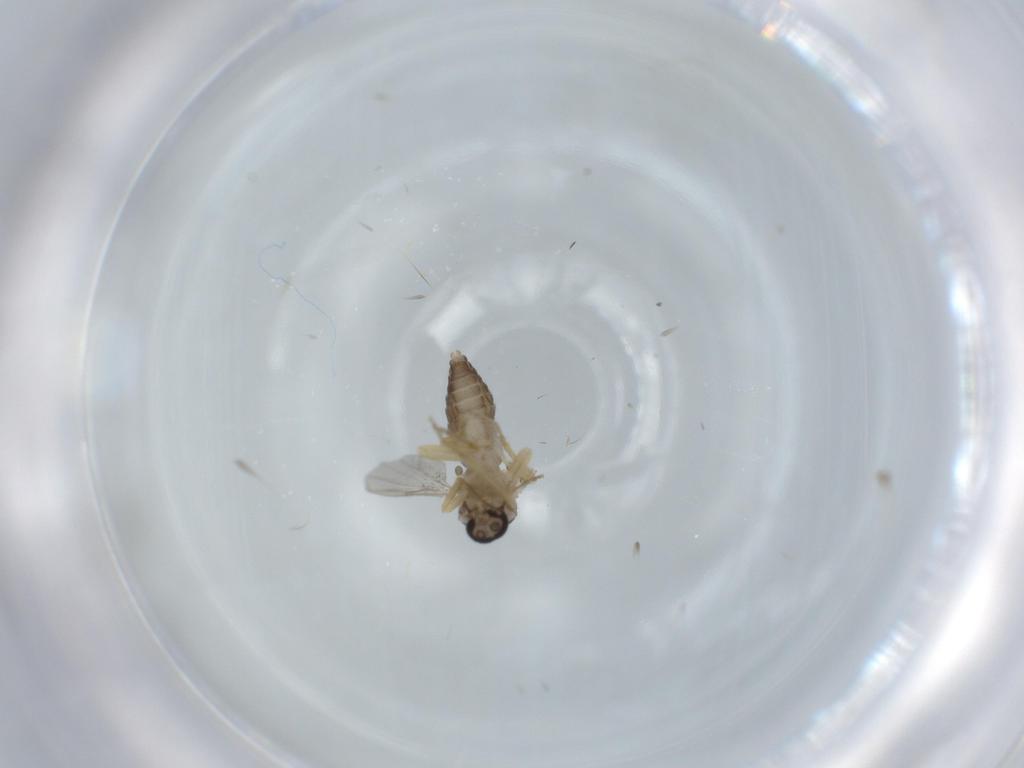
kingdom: Animalia
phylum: Arthropoda
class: Insecta
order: Diptera
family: Ceratopogonidae
